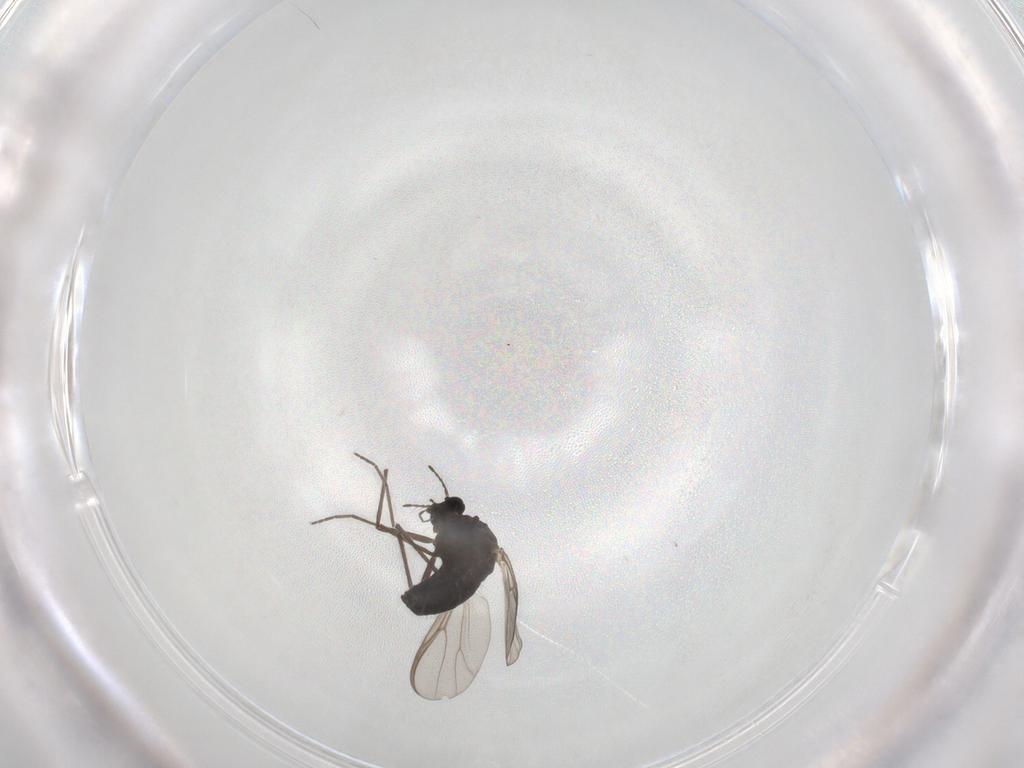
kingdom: Animalia
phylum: Arthropoda
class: Insecta
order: Diptera
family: Chironomidae
